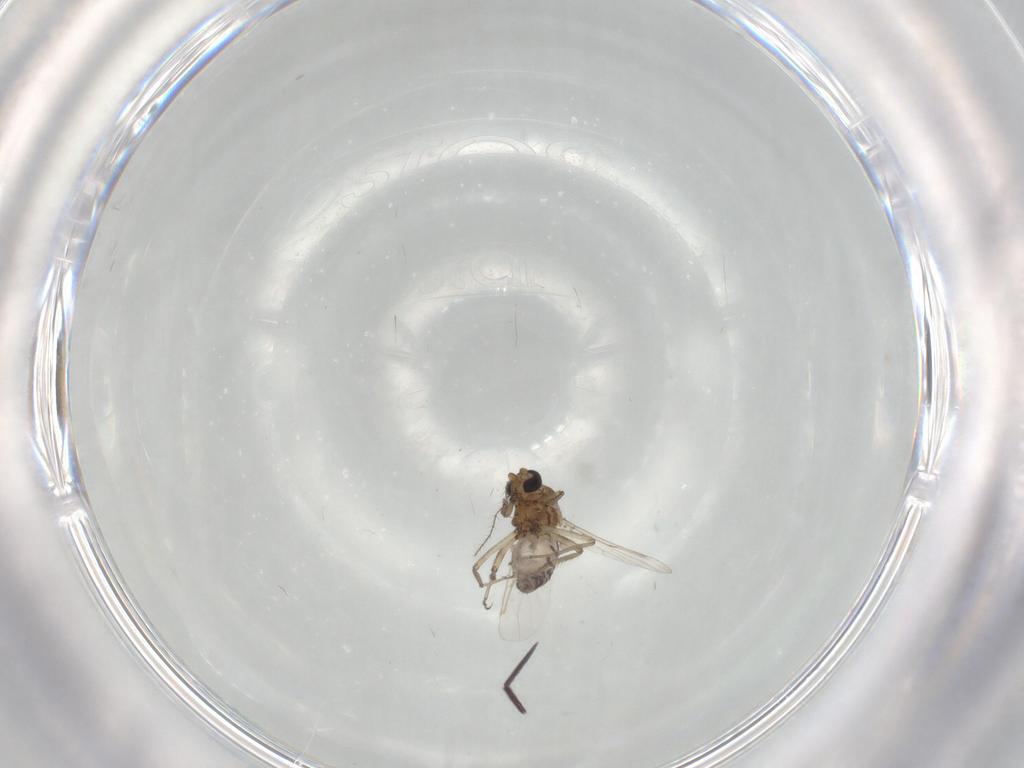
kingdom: Animalia
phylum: Arthropoda
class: Insecta
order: Diptera
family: Ceratopogonidae
